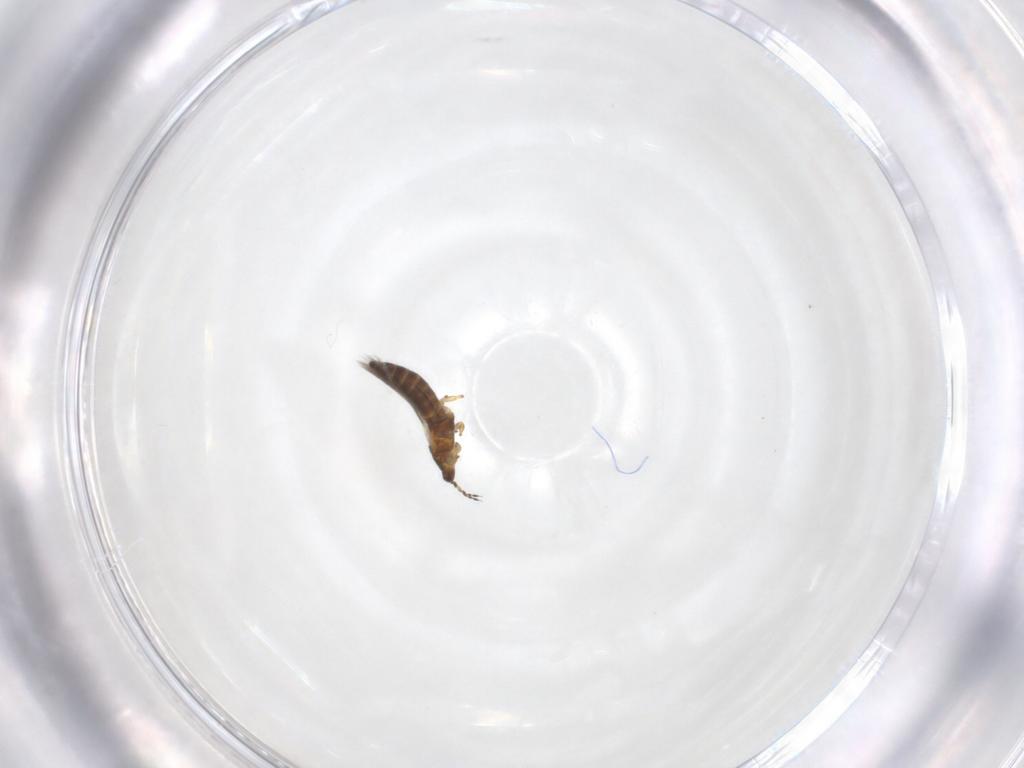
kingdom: Animalia
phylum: Arthropoda
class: Insecta
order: Thysanoptera
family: Thripidae
